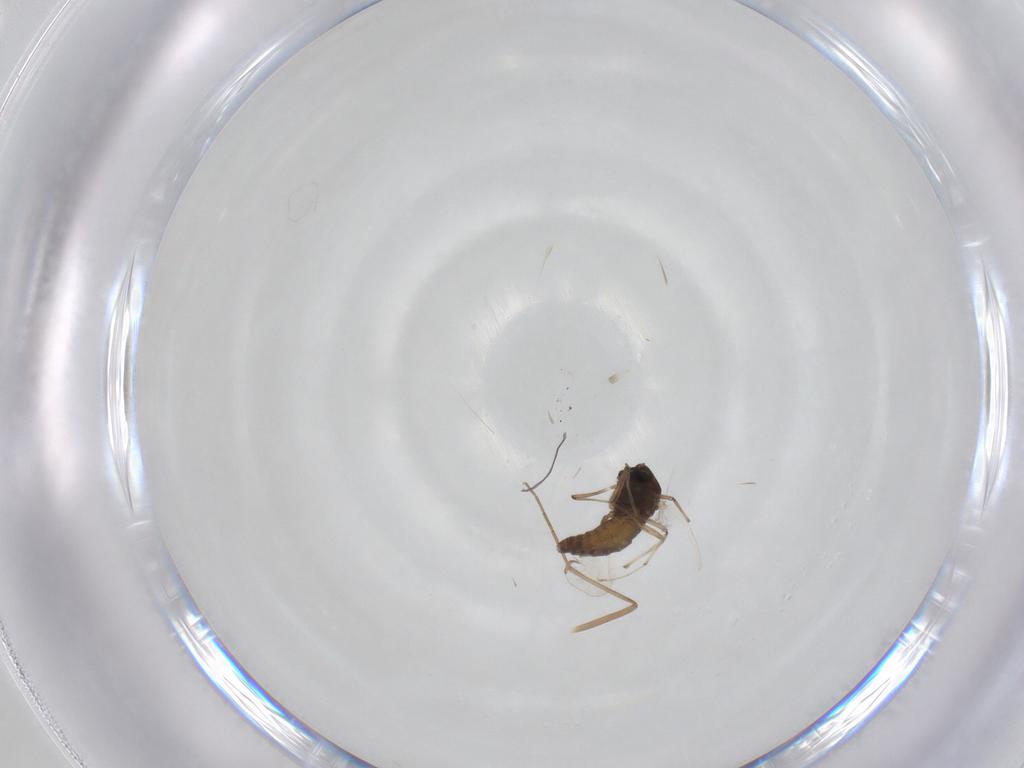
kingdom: Animalia
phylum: Arthropoda
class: Insecta
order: Diptera
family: Chironomidae
